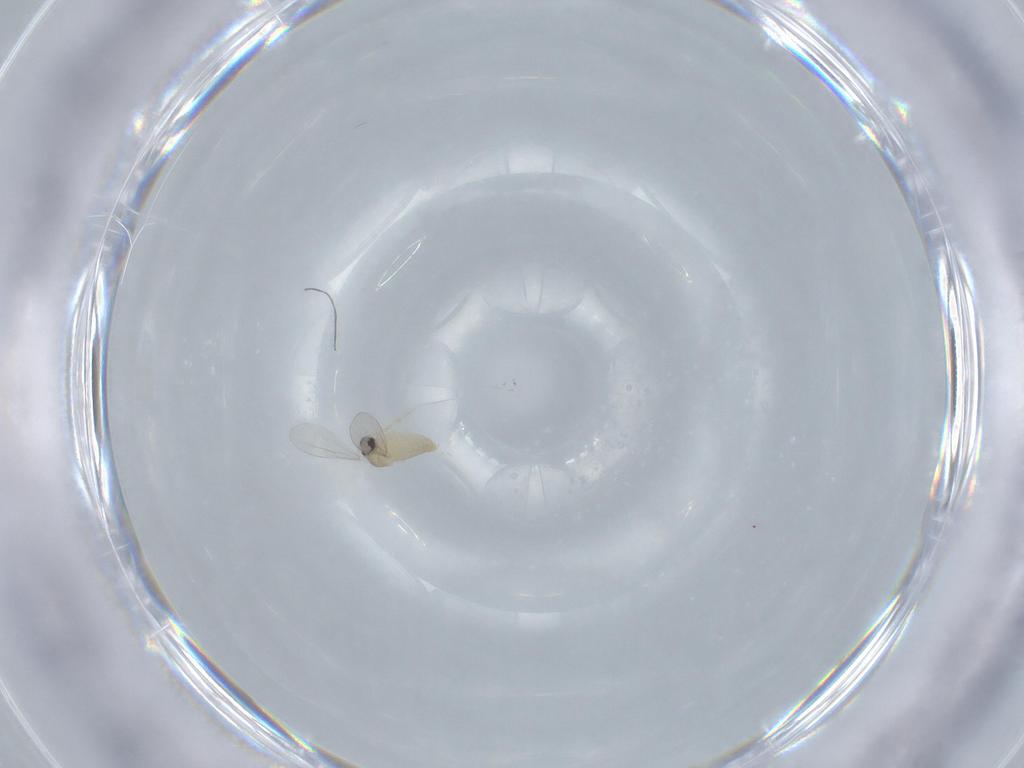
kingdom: Animalia
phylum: Arthropoda
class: Insecta
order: Diptera
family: Cecidomyiidae
